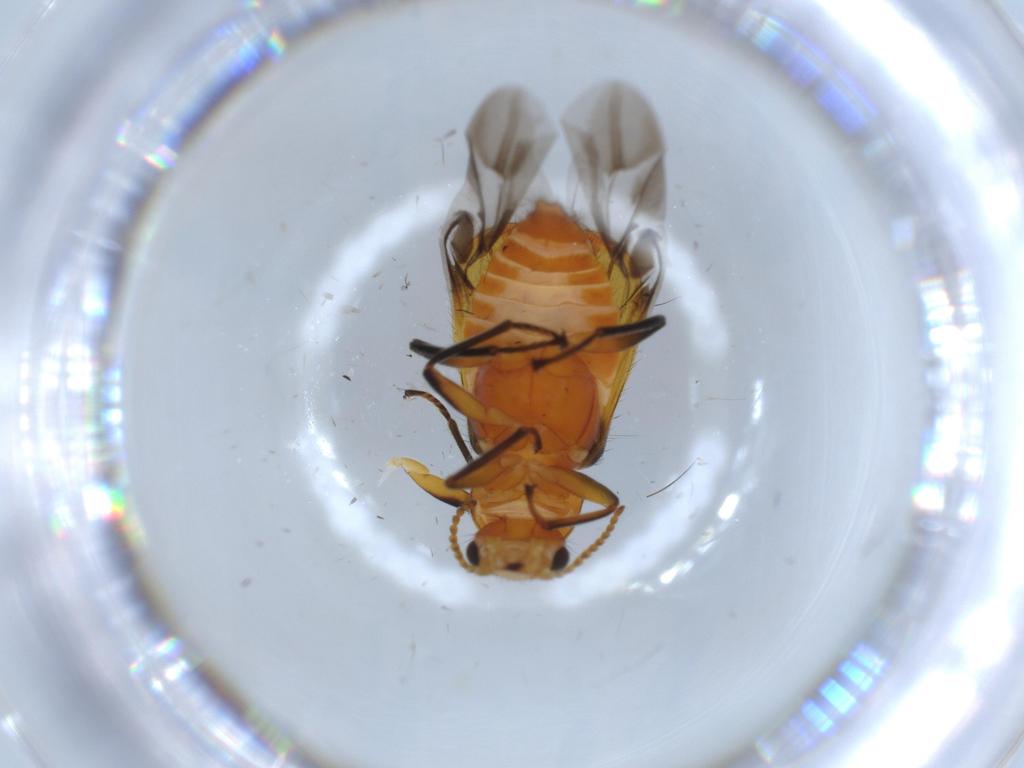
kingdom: Animalia
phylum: Arthropoda
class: Insecta
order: Coleoptera
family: Melyridae
